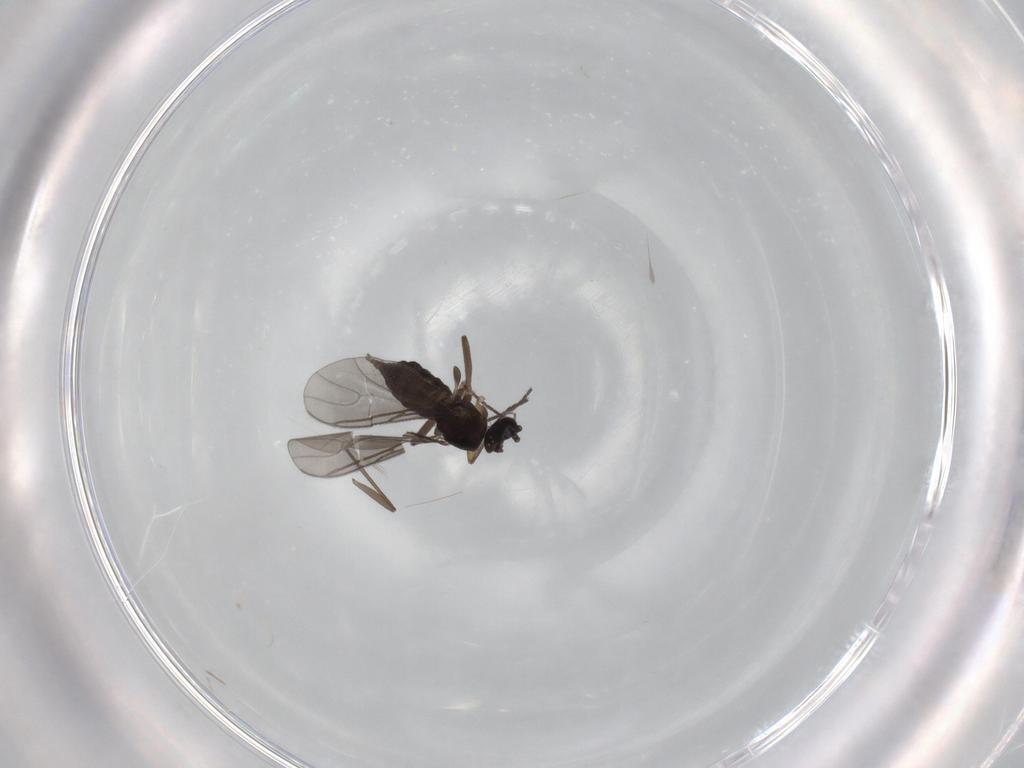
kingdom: Animalia
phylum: Arthropoda
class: Insecta
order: Diptera
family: Sciaridae
